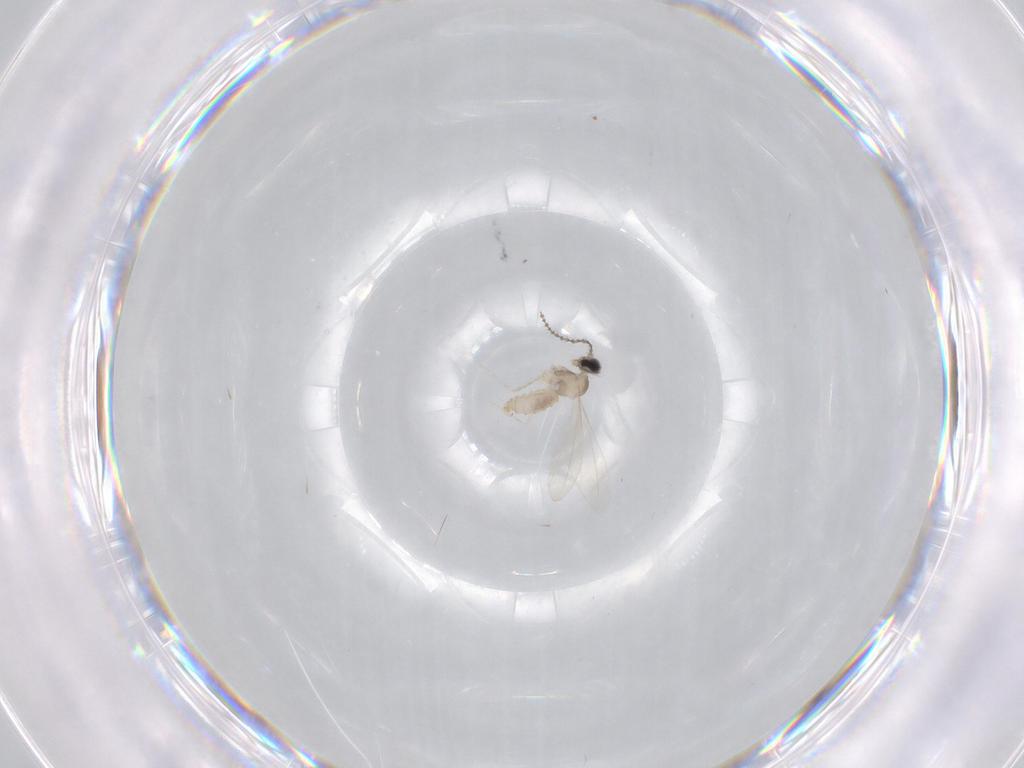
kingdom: Animalia
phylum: Arthropoda
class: Insecta
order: Diptera
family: Cecidomyiidae
